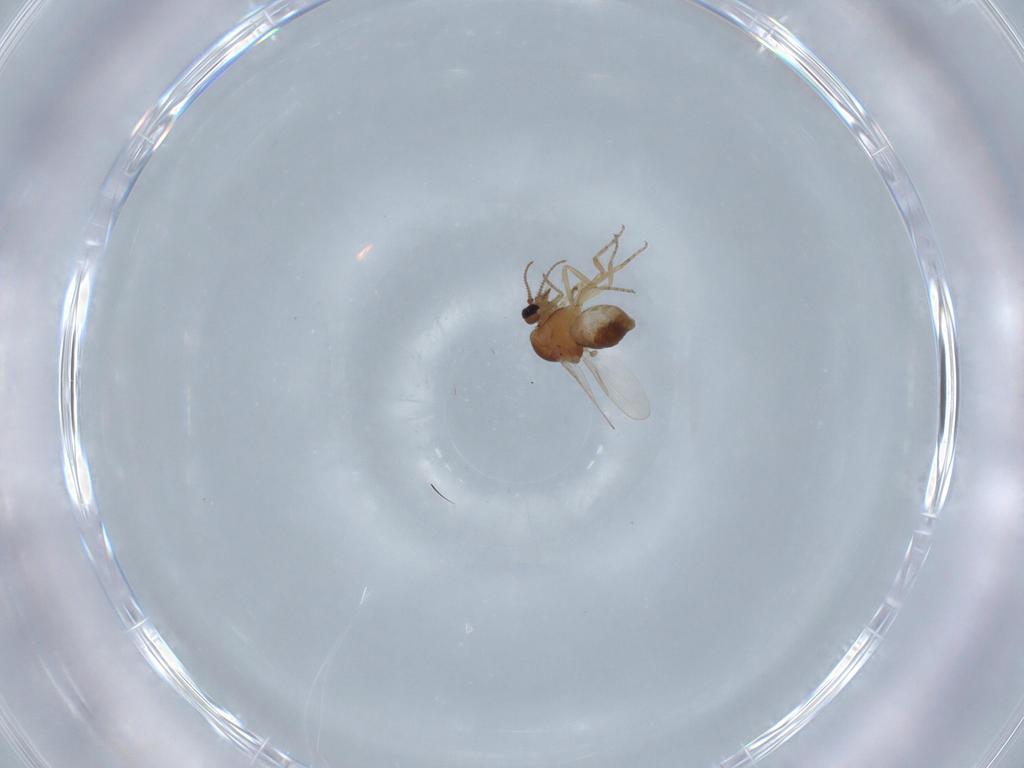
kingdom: Animalia
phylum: Arthropoda
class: Insecta
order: Diptera
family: Ceratopogonidae
